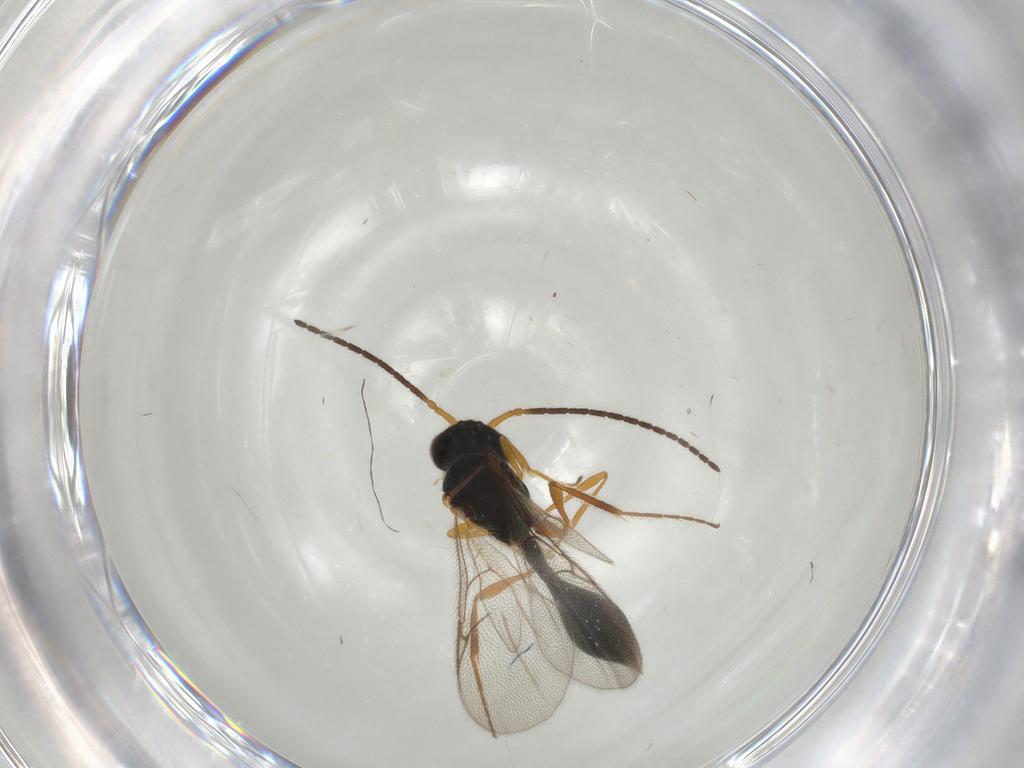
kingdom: Animalia
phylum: Arthropoda
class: Insecta
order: Hymenoptera
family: Diapriidae
